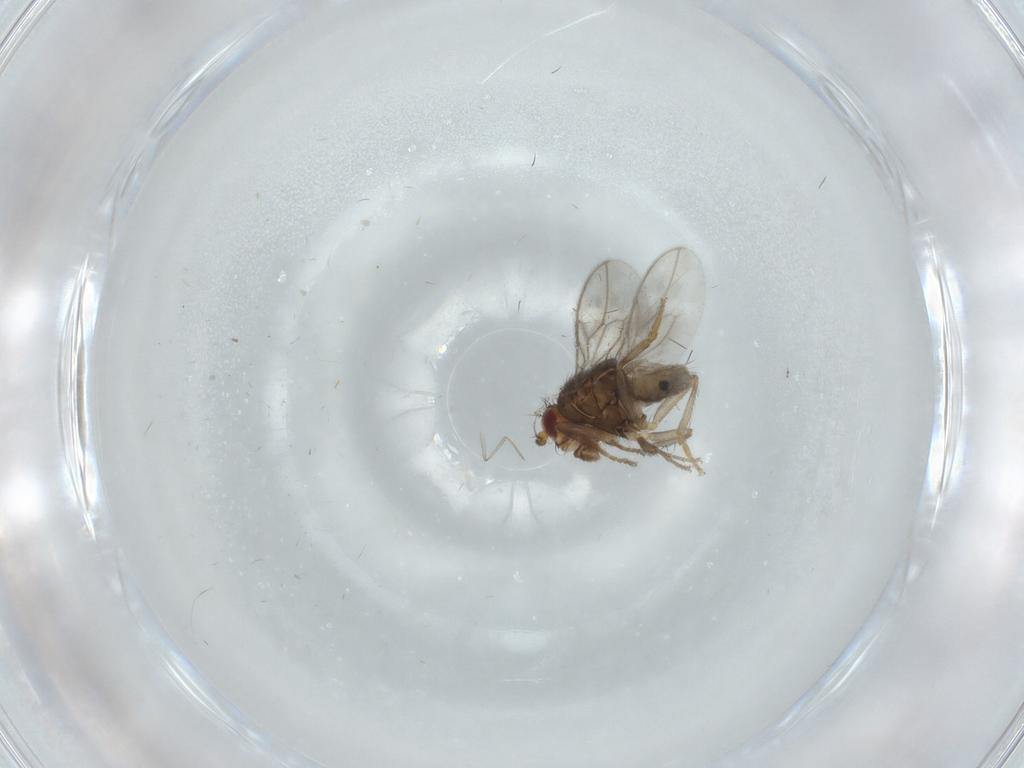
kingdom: Animalia
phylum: Arthropoda
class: Insecta
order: Diptera
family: Sphaeroceridae
